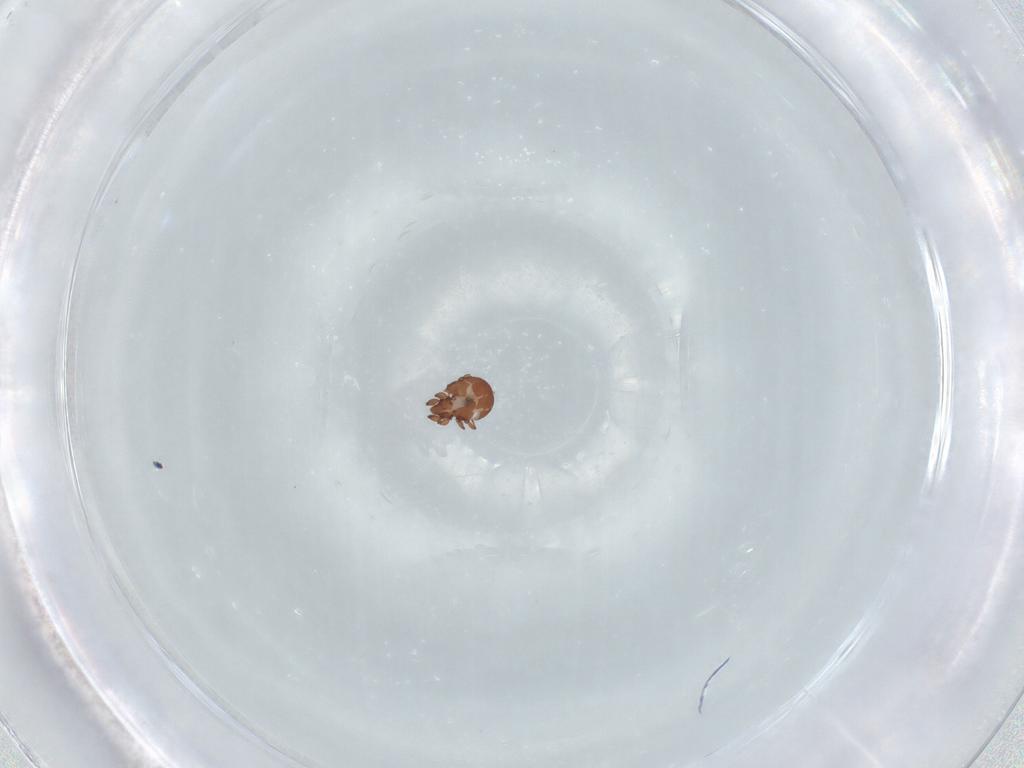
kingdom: Animalia
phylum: Arthropoda
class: Arachnida
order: Sarcoptiformes
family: Eremaeidae
